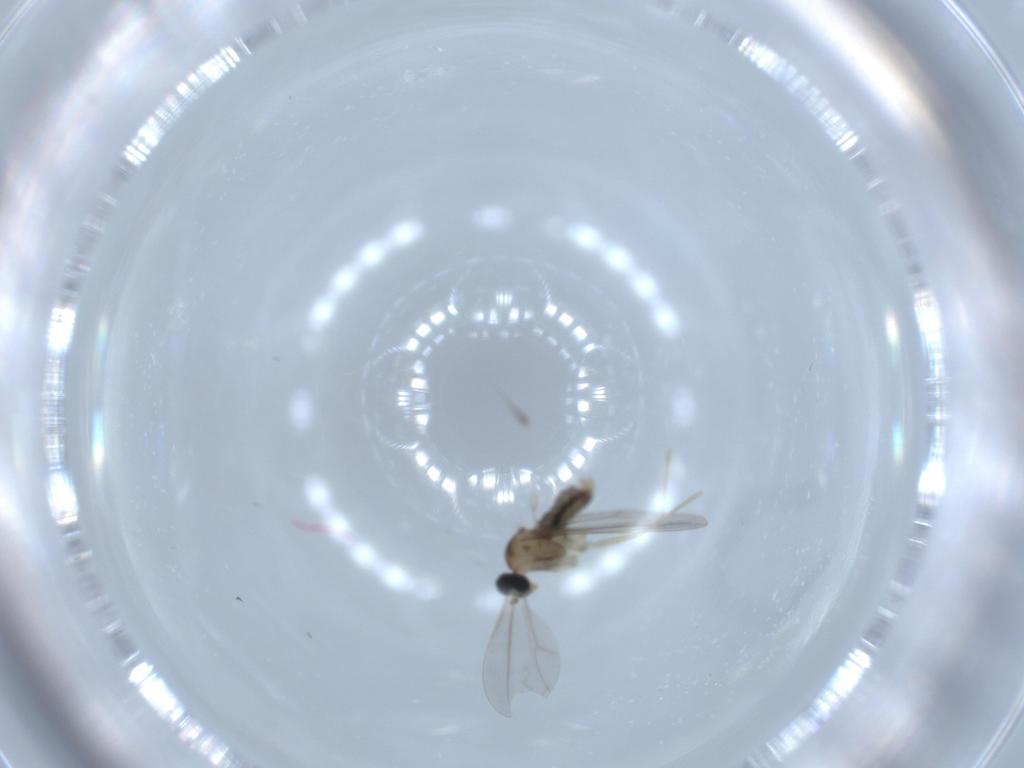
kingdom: Animalia
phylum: Arthropoda
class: Insecta
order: Diptera
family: Cecidomyiidae
